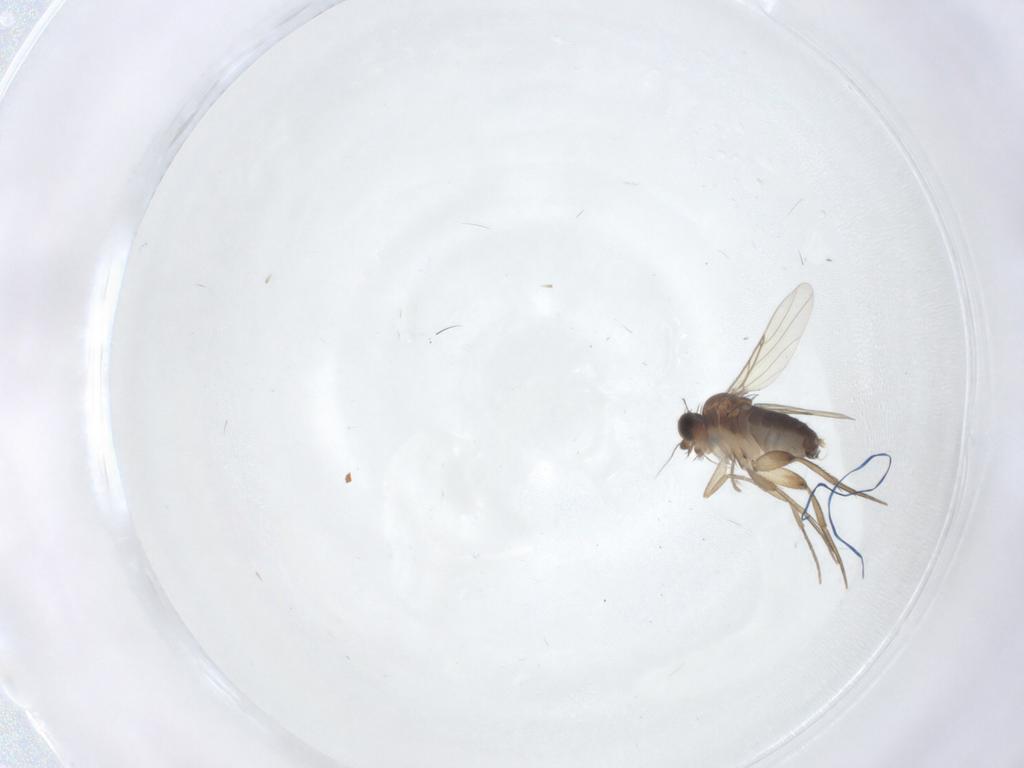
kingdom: Animalia
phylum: Arthropoda
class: Insecta
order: Diptera
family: Phoridae
